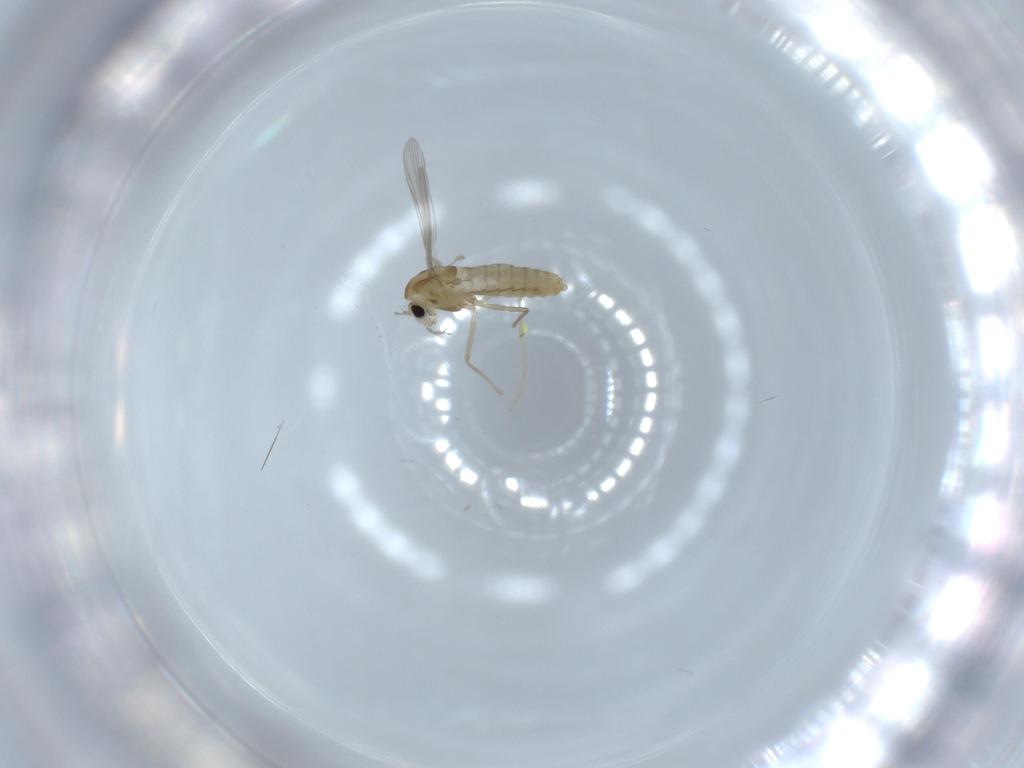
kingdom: Animalia
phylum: Arthropoda
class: Insecta
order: Diptera
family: Chironomidae
